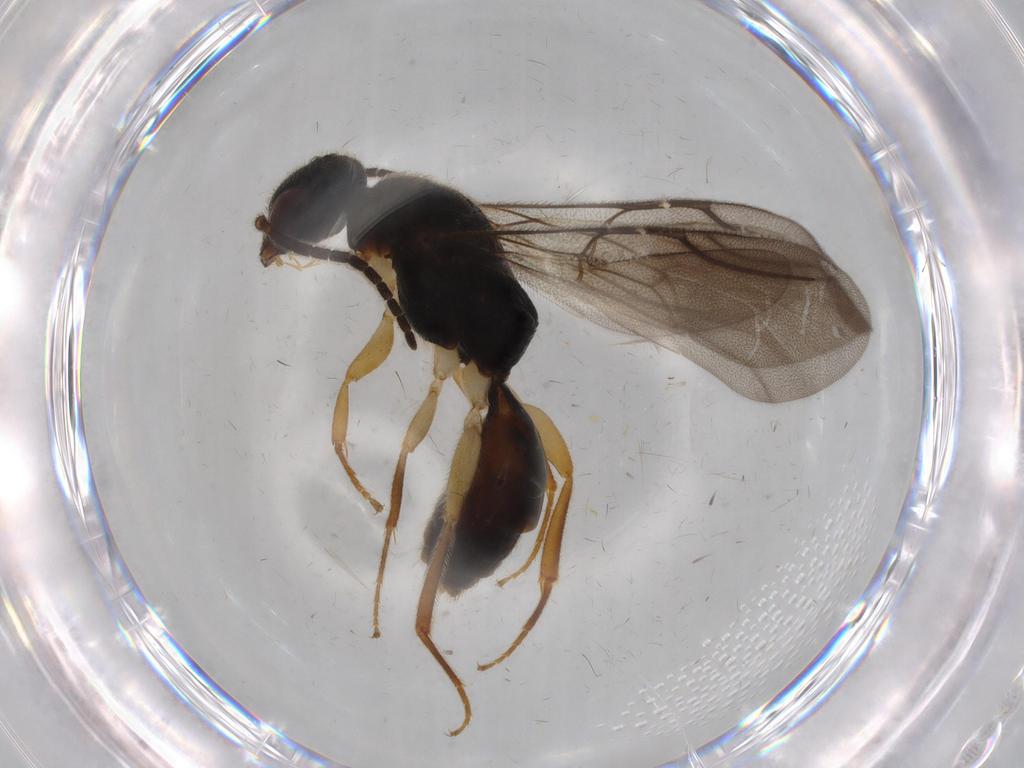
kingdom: Animalia
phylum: Arthropoda
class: Insecta
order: Hymenoptera
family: Bethylidae
